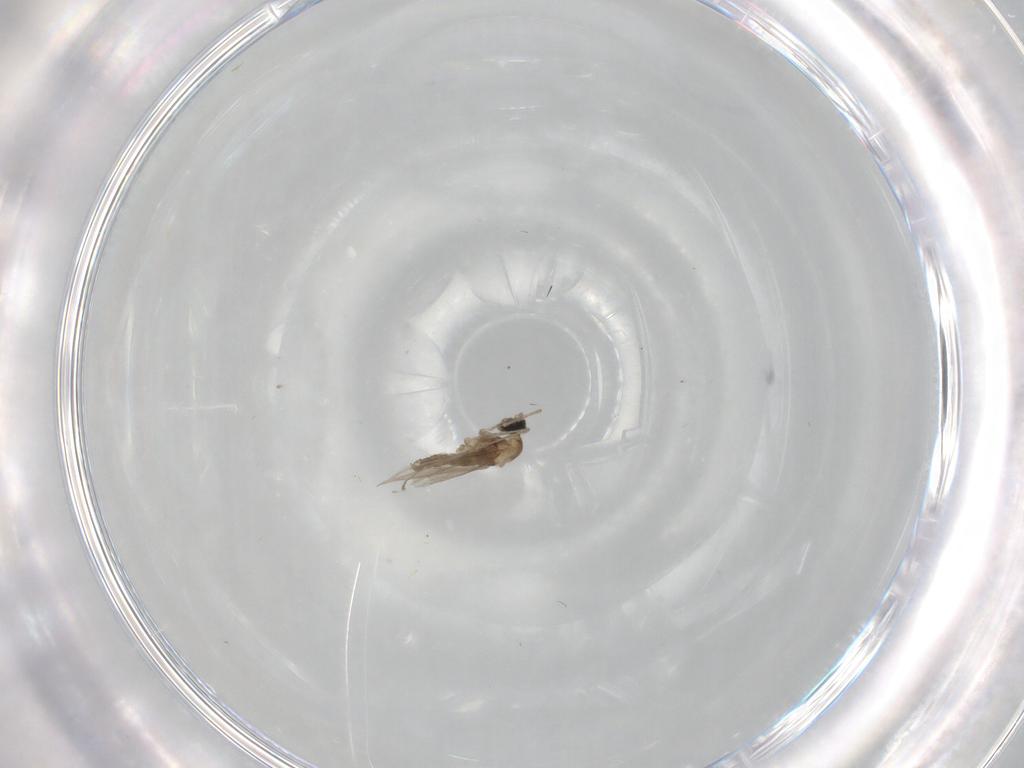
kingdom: Animalia
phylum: Arthropoda
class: Insecta
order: Diptera
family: Cecidomyiidae
